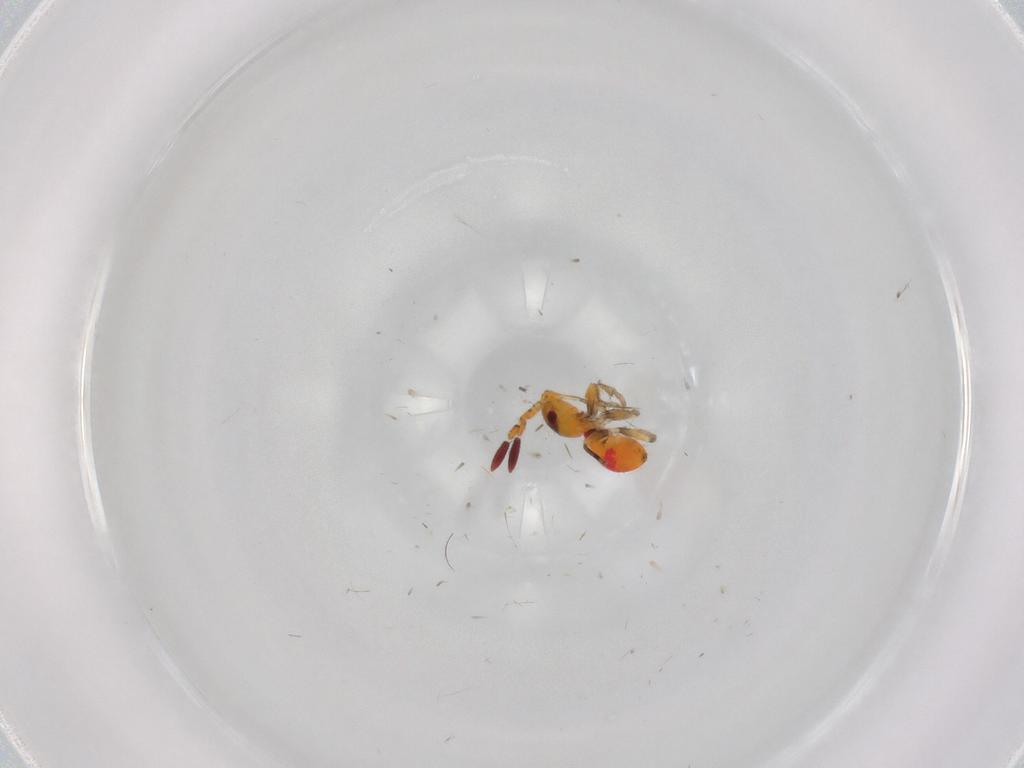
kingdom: Animalia
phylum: Arthropoda
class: Insecta
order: Hemiptera
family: Rhyparochromidae
